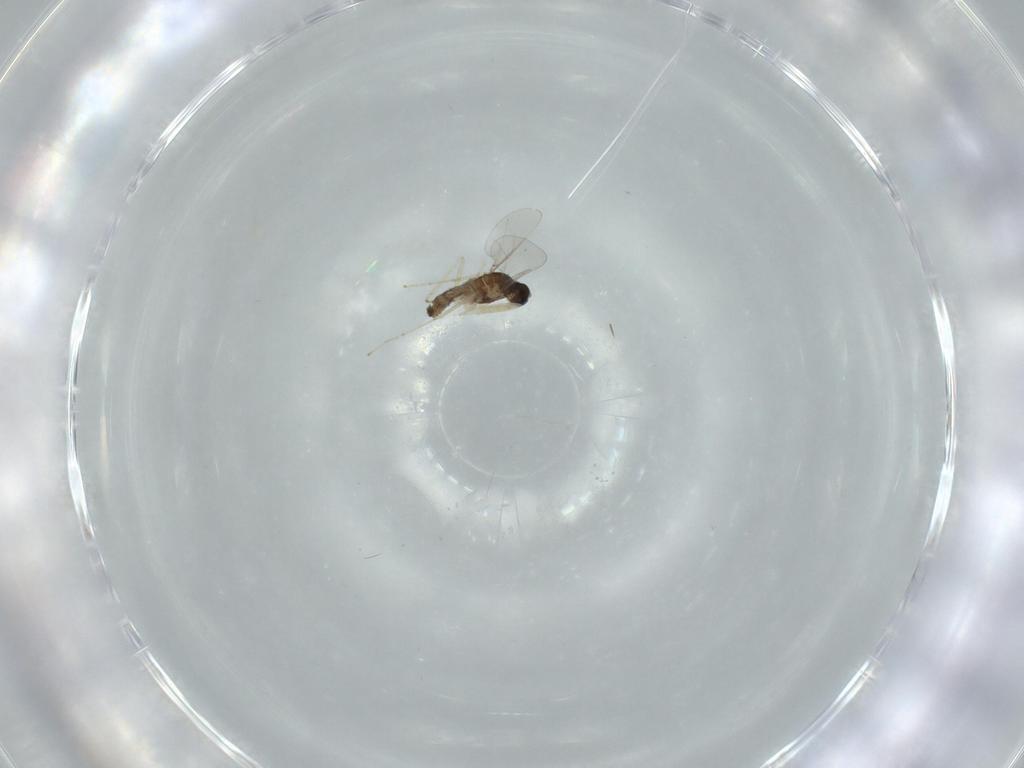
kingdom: Animalia
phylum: Arthropoda
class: Insecta
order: Diptera
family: Cecidomyiidae
